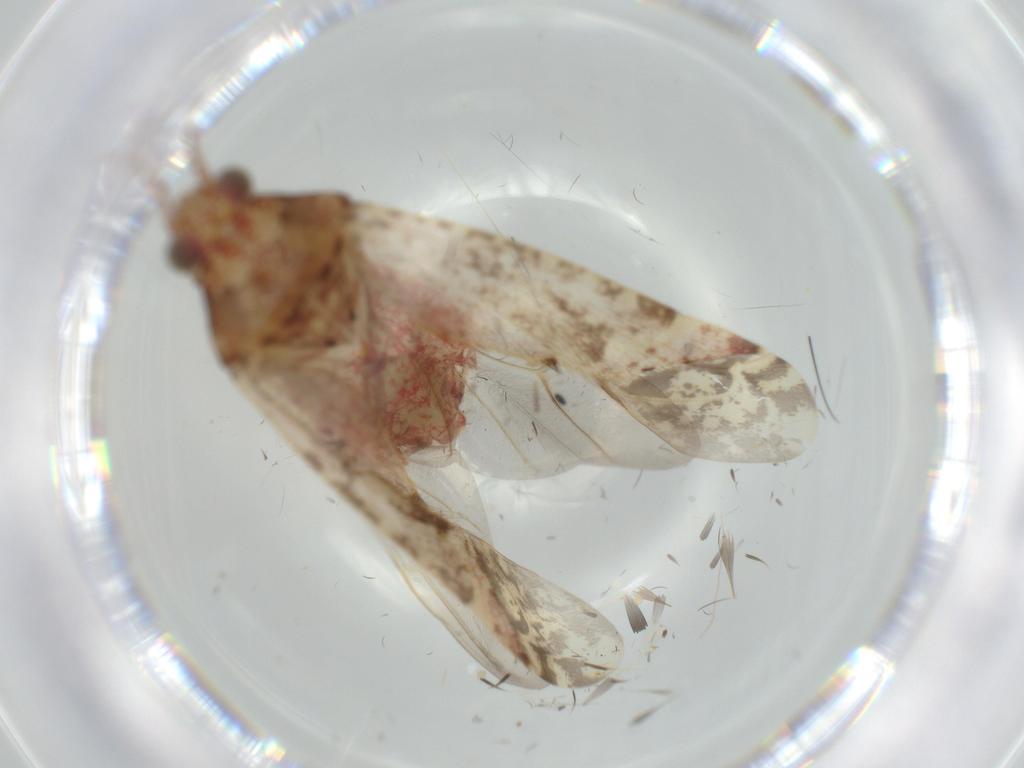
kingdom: Animalia
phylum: Arthropoda
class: Insecta
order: Hemiptera
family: Miridae
